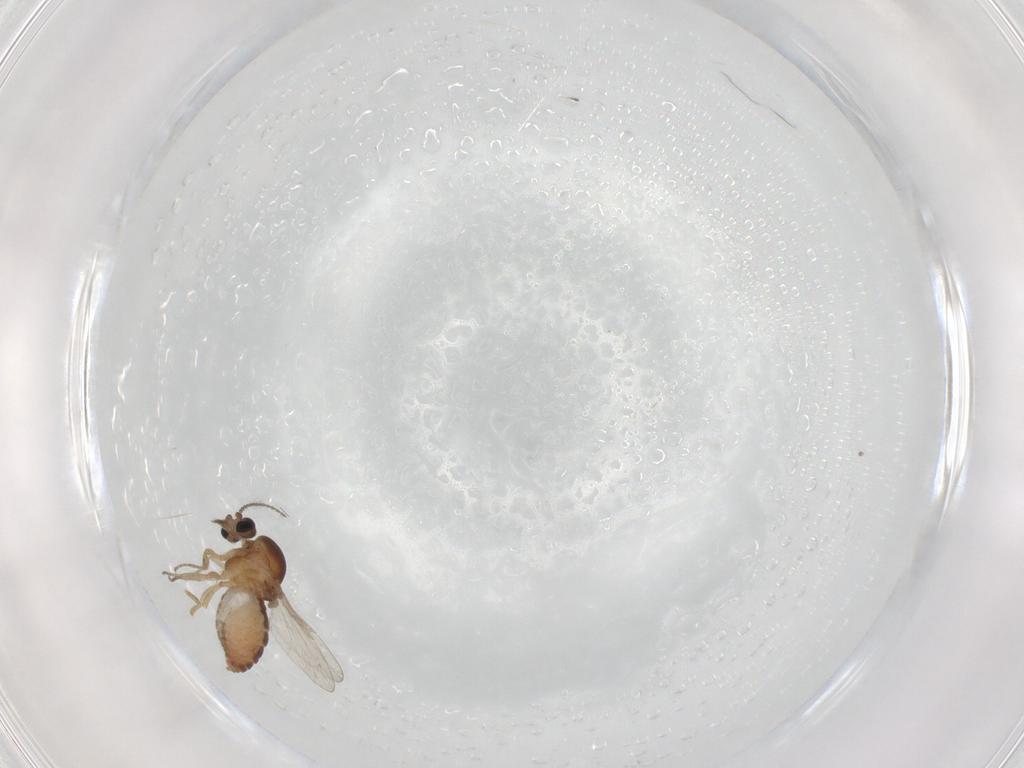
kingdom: Animalia
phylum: Arthropoda
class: Insecta
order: Diptera
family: Ceratopogonidae
